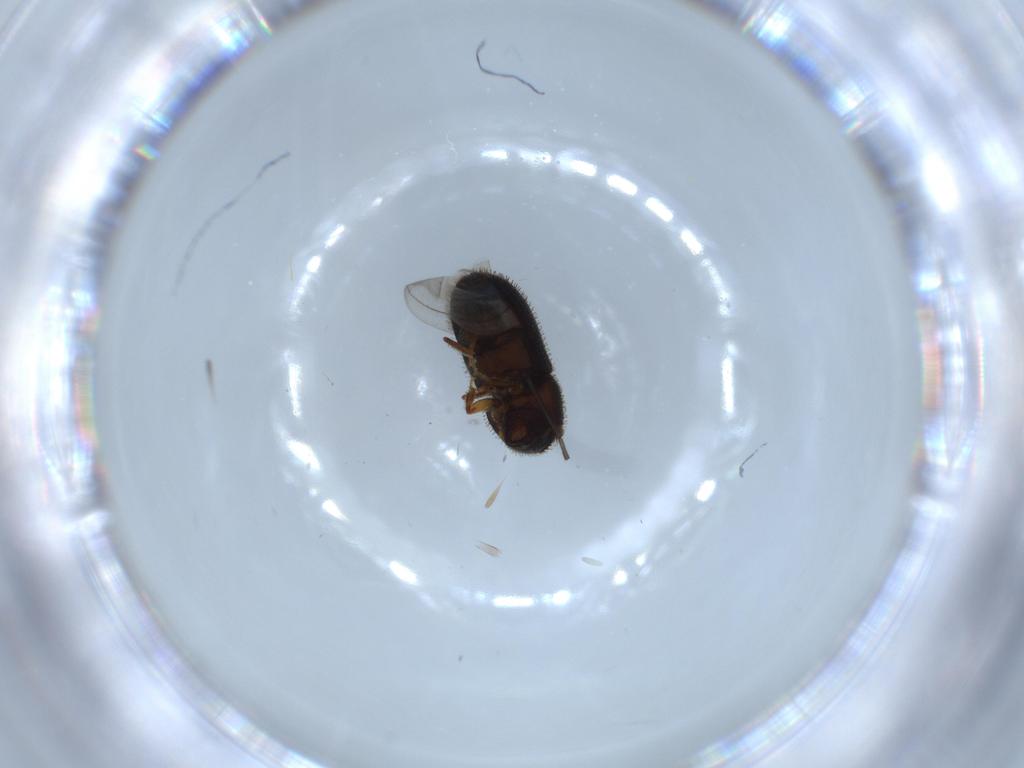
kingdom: Animalia
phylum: Arthropoda
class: Insecta
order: Coleoptera
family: Curculionidae
